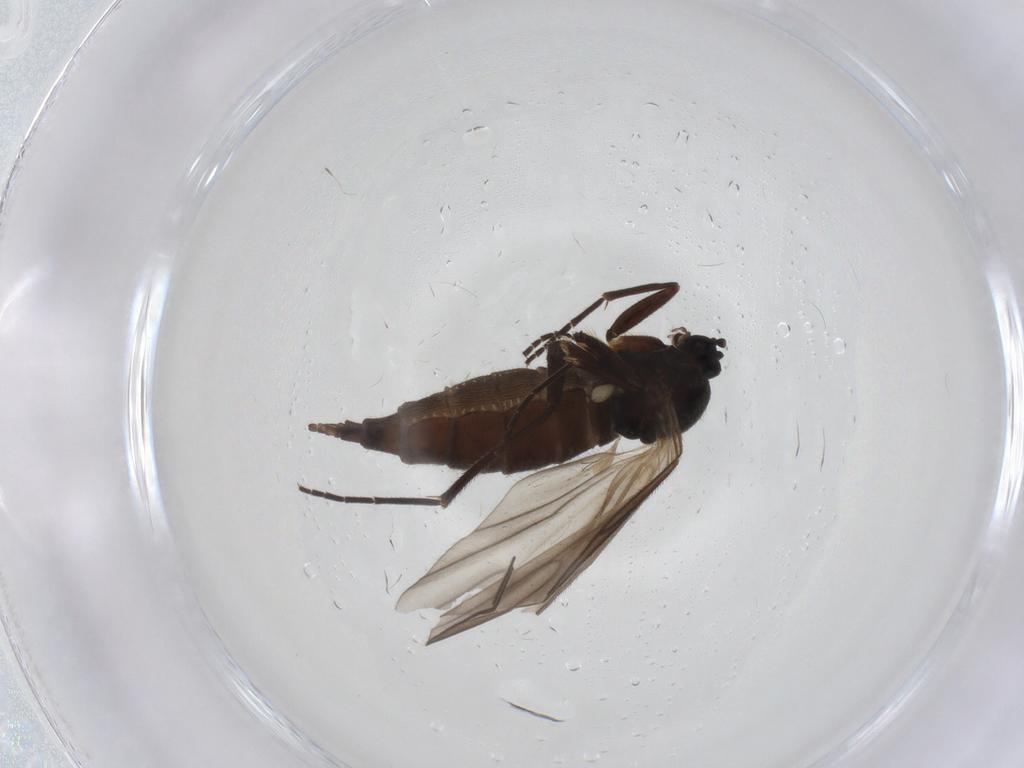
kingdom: Animalia
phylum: Arthropoda
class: Insecta
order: Diptera
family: Sciaridae
